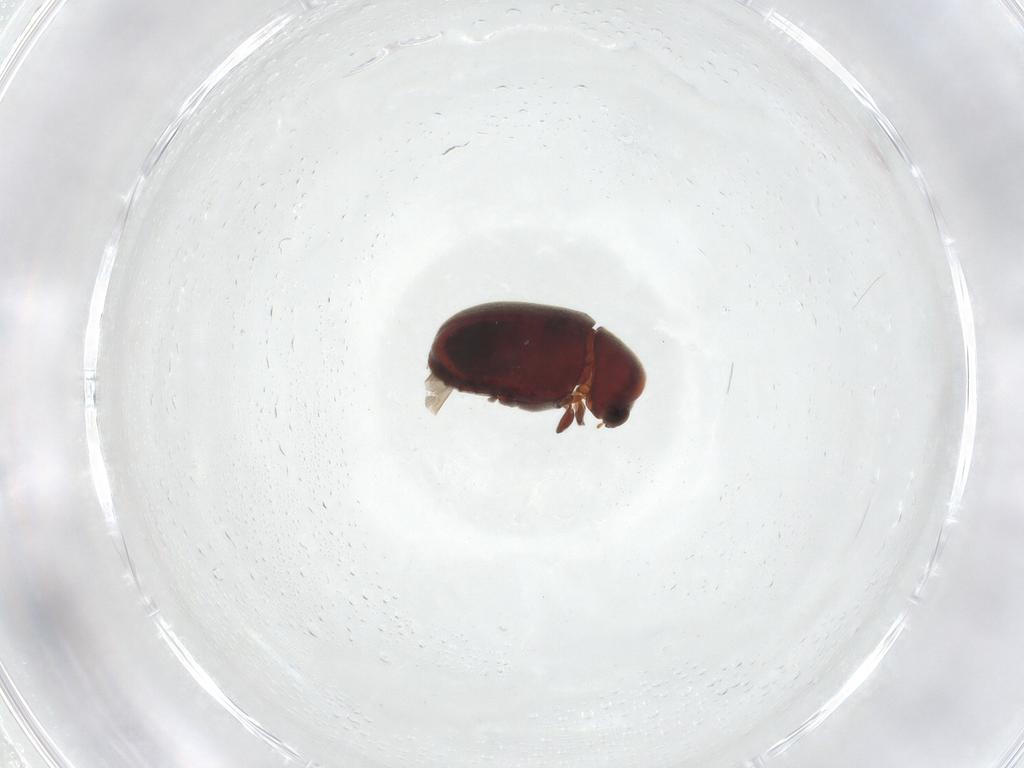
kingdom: Animalia
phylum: Arthropoda
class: Insecta
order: Coleoptera
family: Ptinidae
